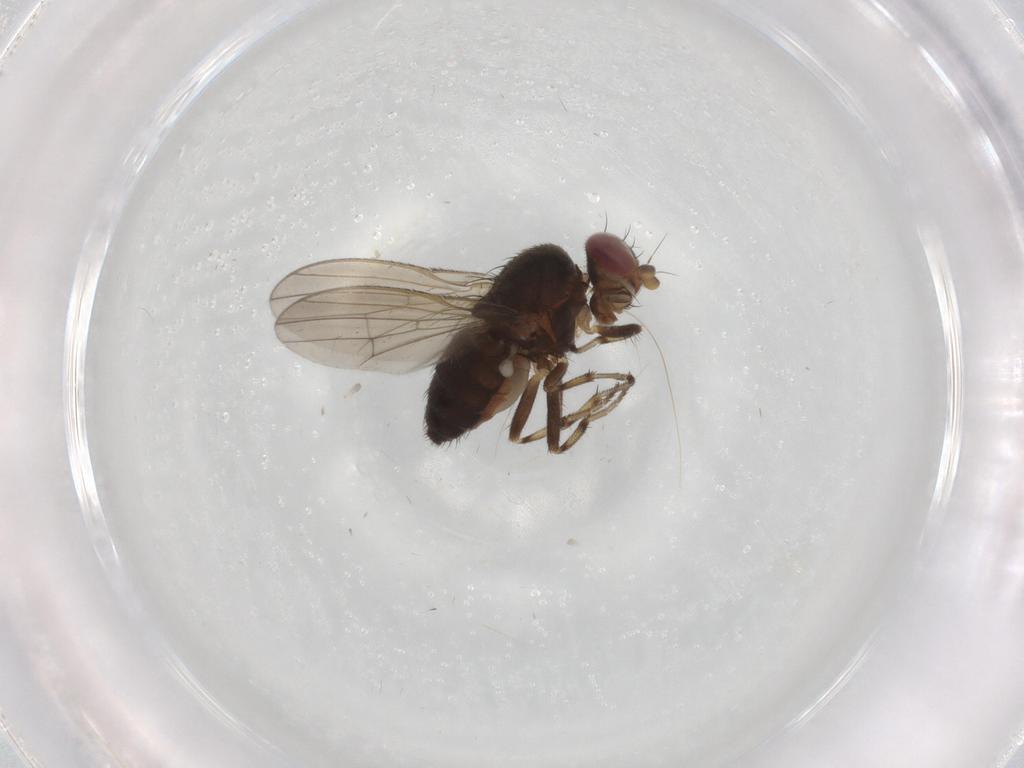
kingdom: Animalia
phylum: Arthropoda
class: Insecta
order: Diptera
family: Heleomyzidae
